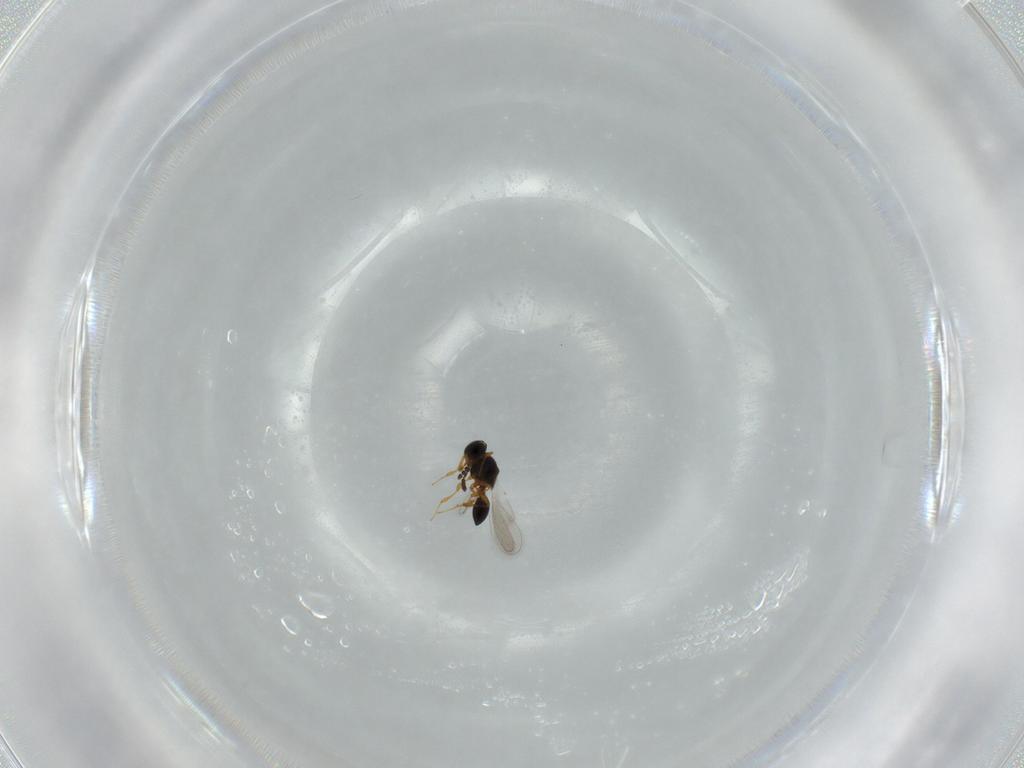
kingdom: Animalia
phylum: Arthropoda
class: Insecta
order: Hymenoptera
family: Platygastridae
